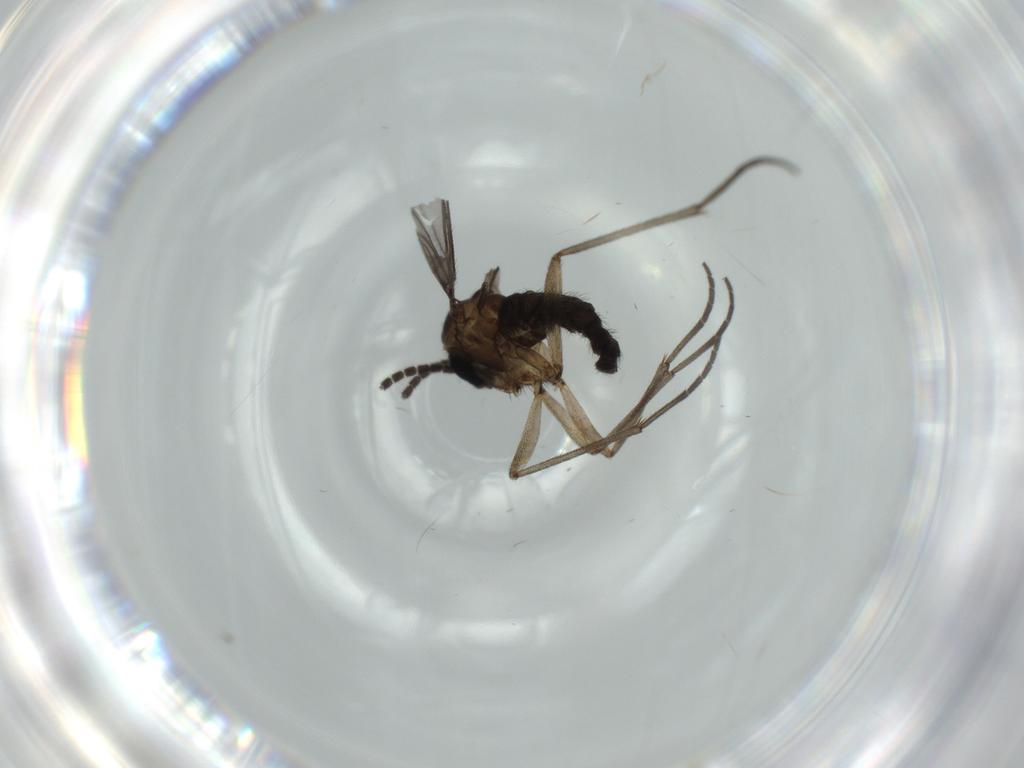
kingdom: Animalia
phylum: Arthropoda
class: Insecta
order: Diptera
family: Sciaridae
